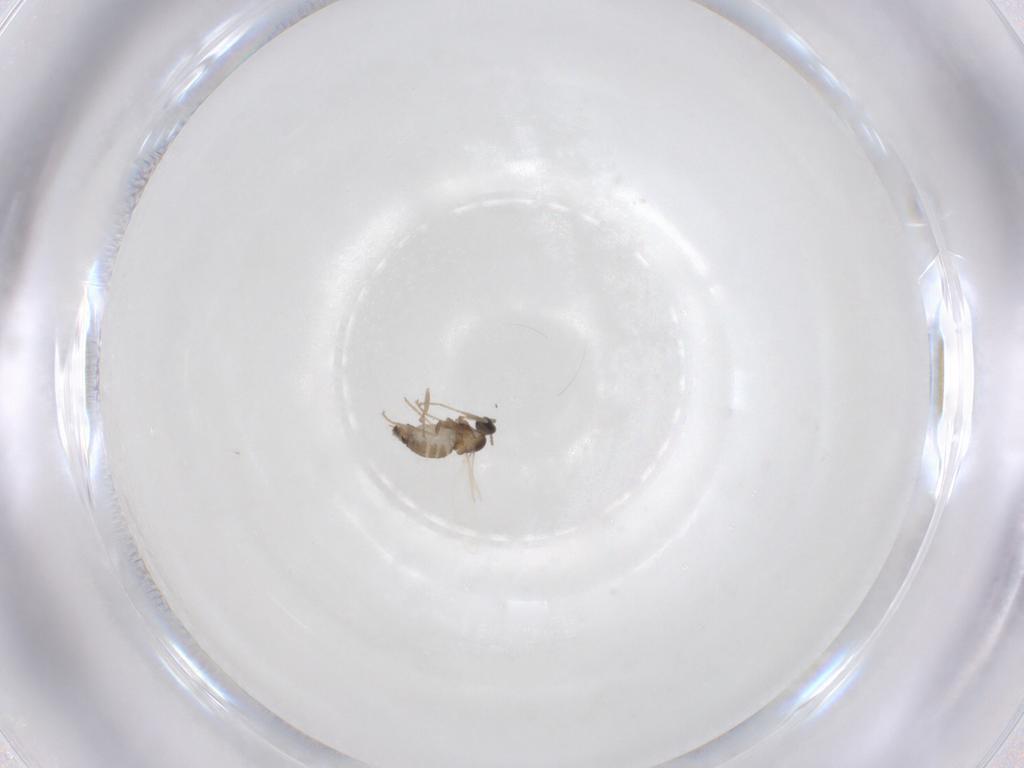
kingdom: Animalia
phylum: Arthropoda
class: Insecta
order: Diptera
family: Cecidomyiidae
